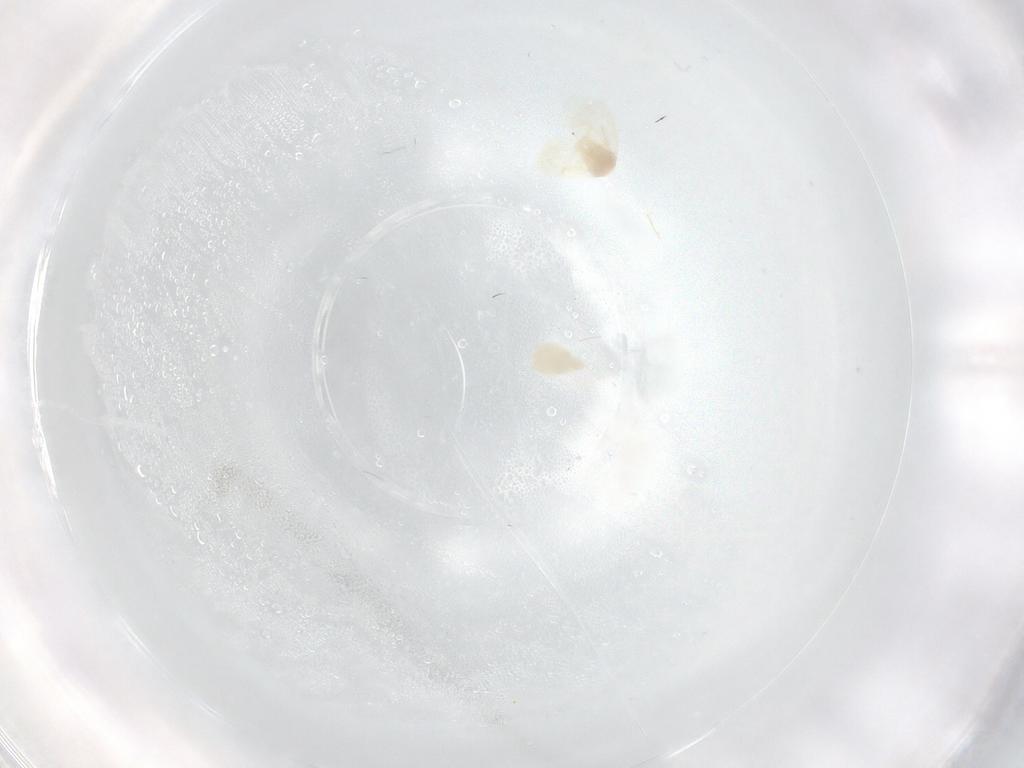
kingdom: Animalia
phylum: Arthropoda
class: Insecta
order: Hemiptera
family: Aleyrodidae
